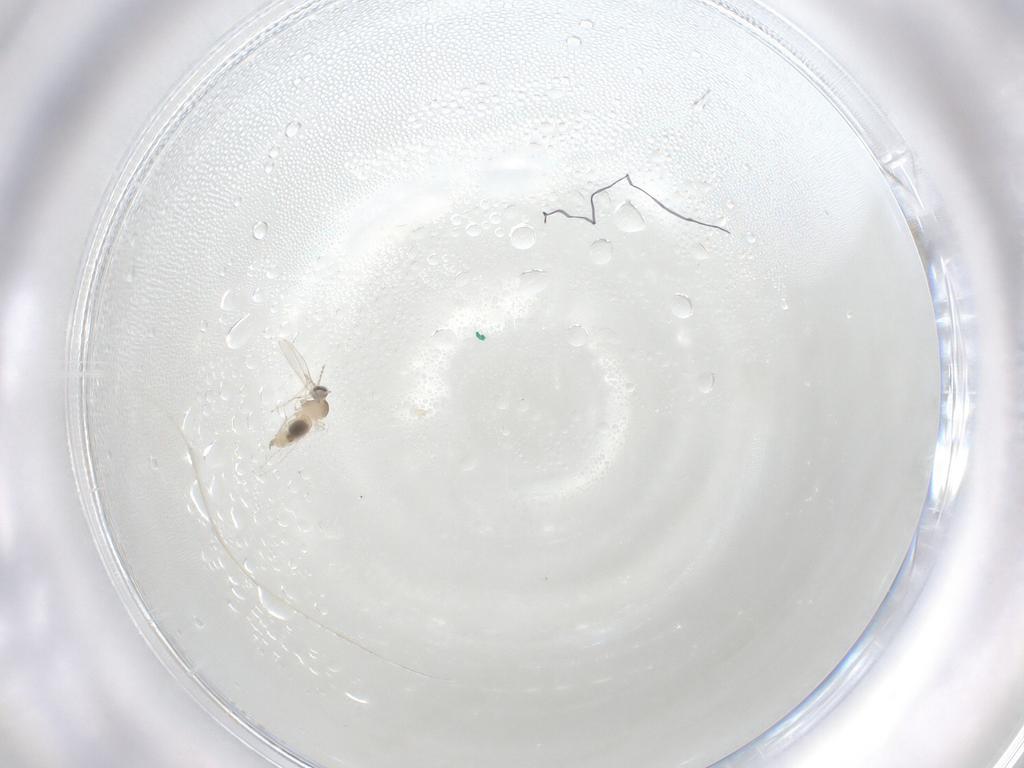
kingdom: Animalia
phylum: Arthropoda
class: Insecta
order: Diptera
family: Cecidomyiidae
